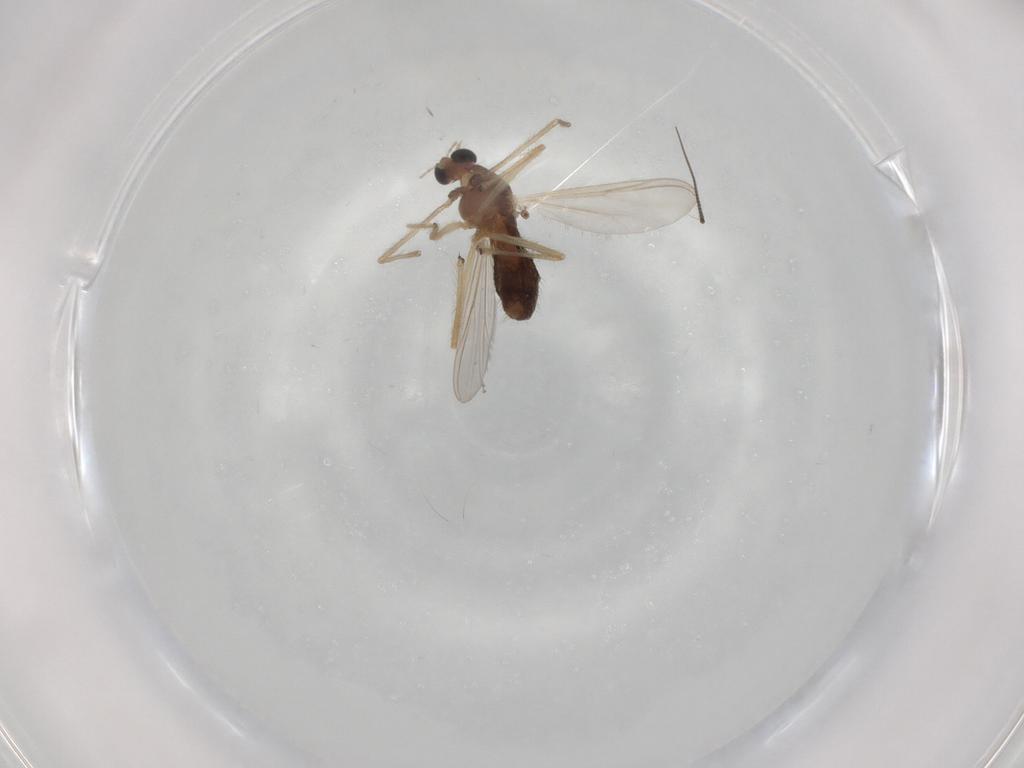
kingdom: Animalia
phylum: Arthropoda
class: Insecta
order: Diptera
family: Chironomidae
